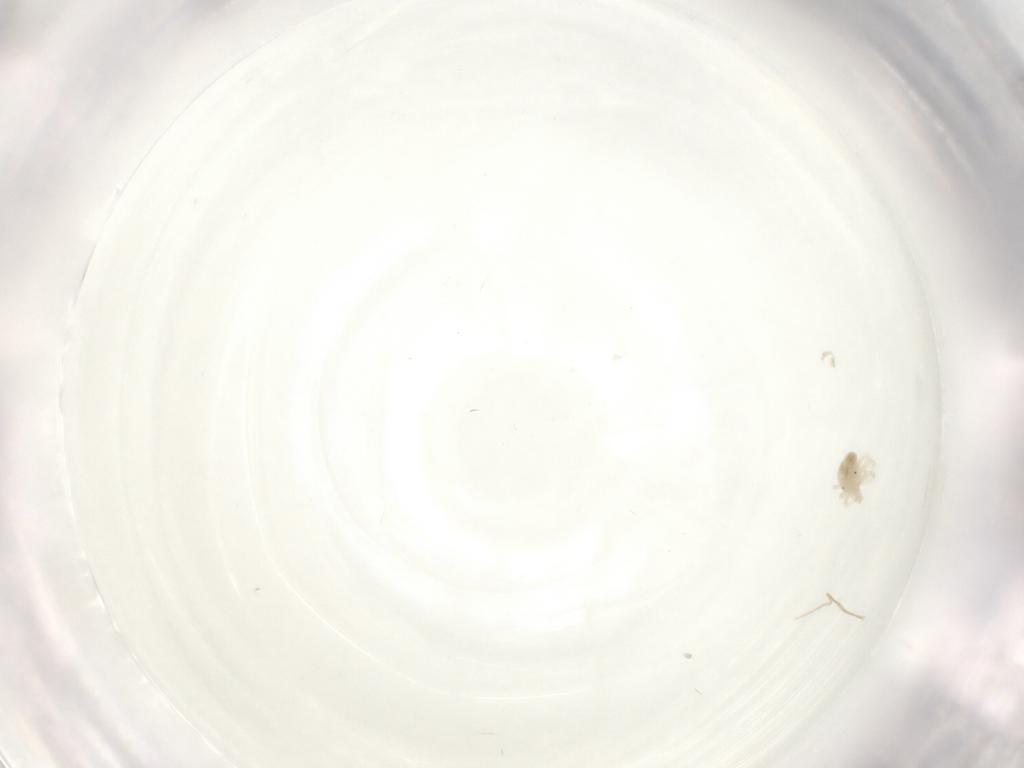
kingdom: Animalia
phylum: Arthropoda
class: Arachnida
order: Trombidiformes
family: Anystidae
